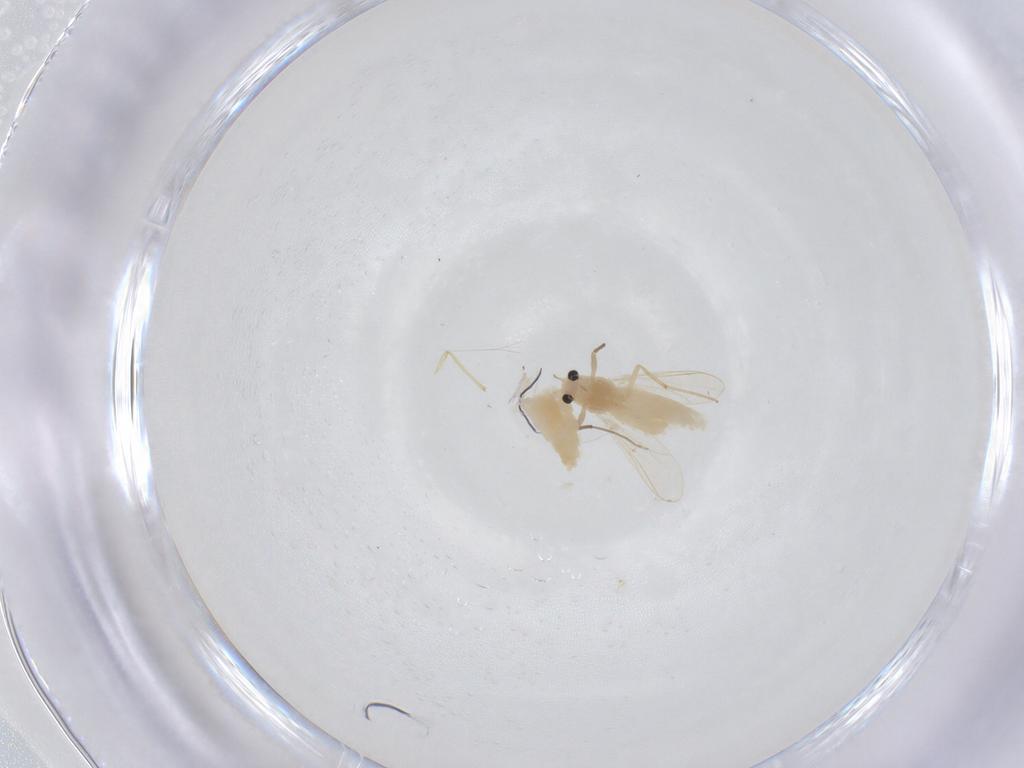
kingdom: Animalia
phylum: Arthropoda
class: Insecta
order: Diptera
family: Chironomidae
